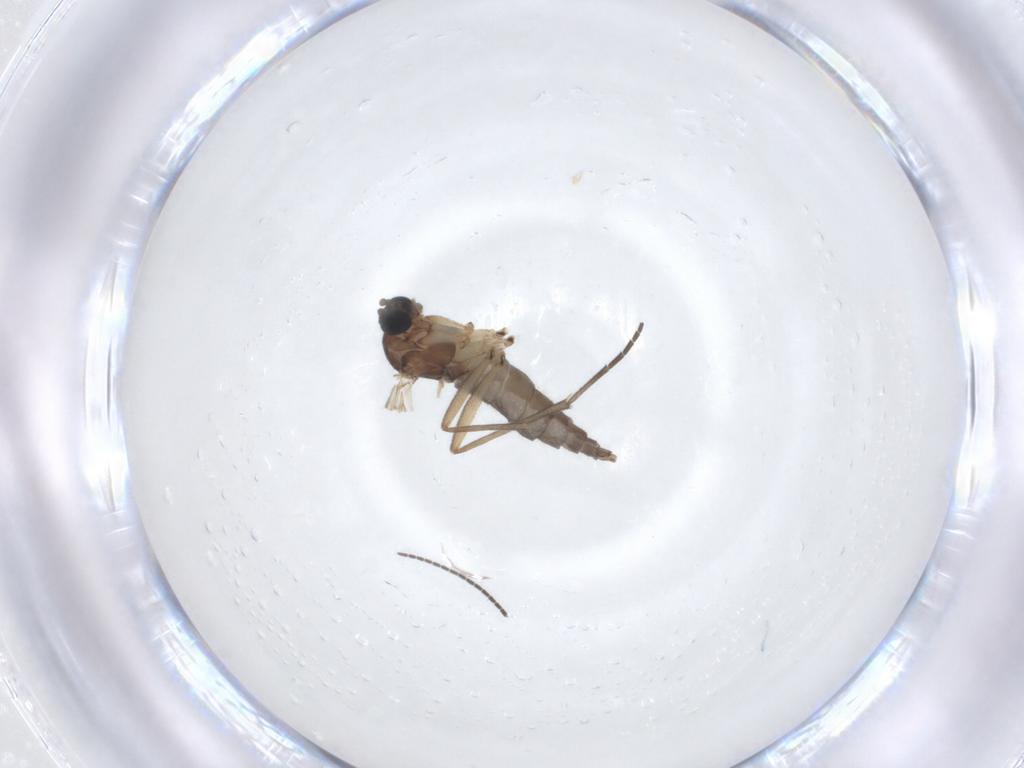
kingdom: Animalia
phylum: Arthropoda
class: Insecta
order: Diptera
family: Sciaridae
